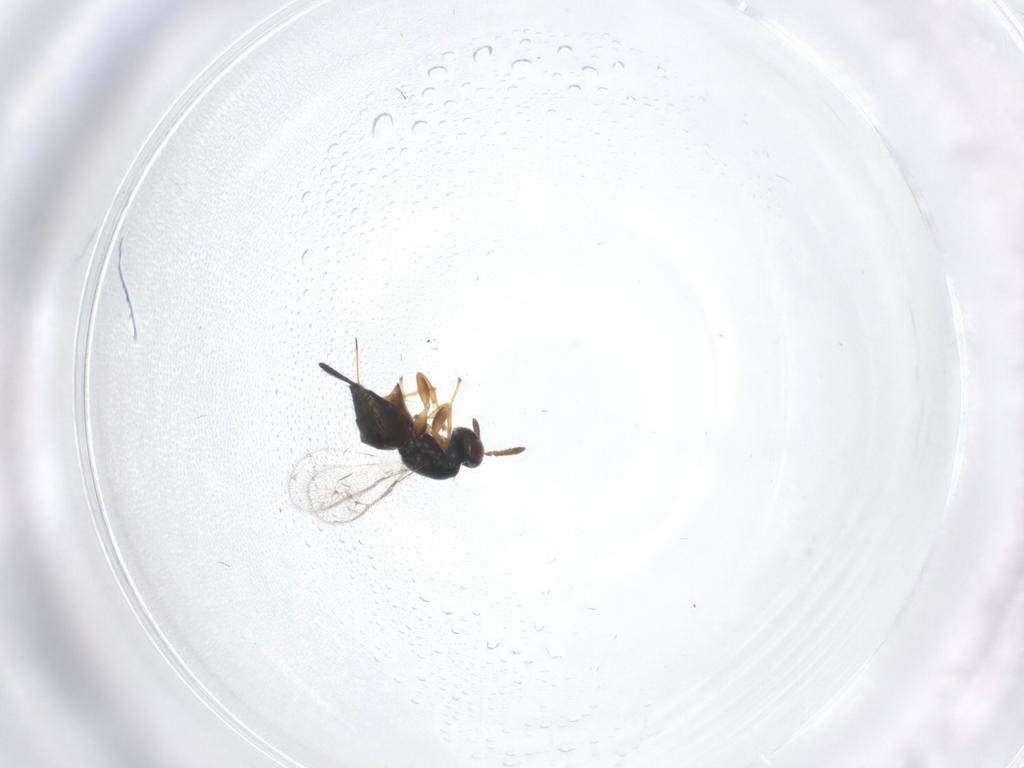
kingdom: Animalia
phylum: Arthropoda
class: Insecta
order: Hymenoptera
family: Torymidae
